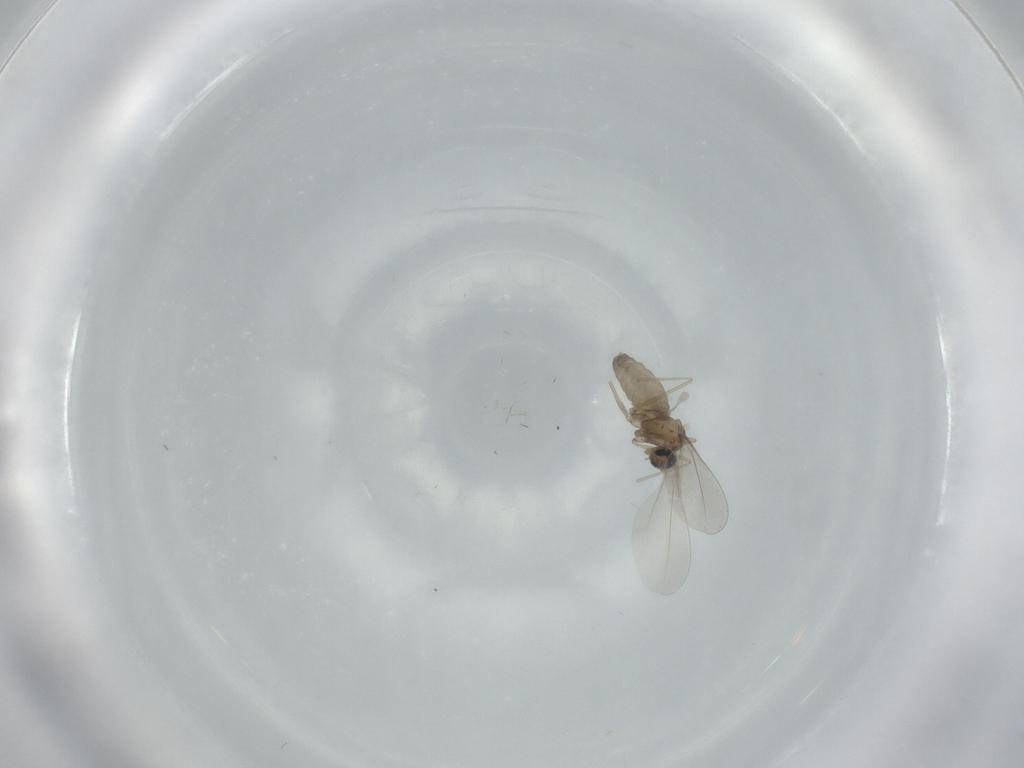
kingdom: Animalia
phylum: Arthropoda
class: Insecta
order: Diptera
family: Cecidomyiidae
